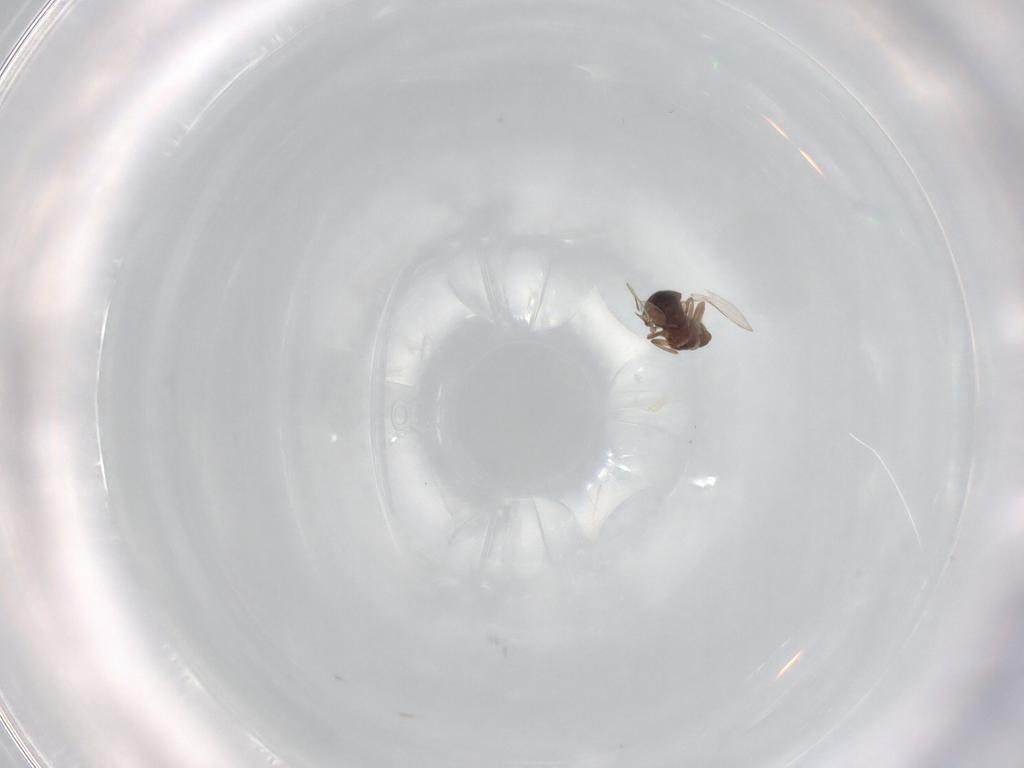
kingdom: Animalia
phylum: Arthropoda
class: Insecta
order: Diptera
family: Ceratopogonidae
